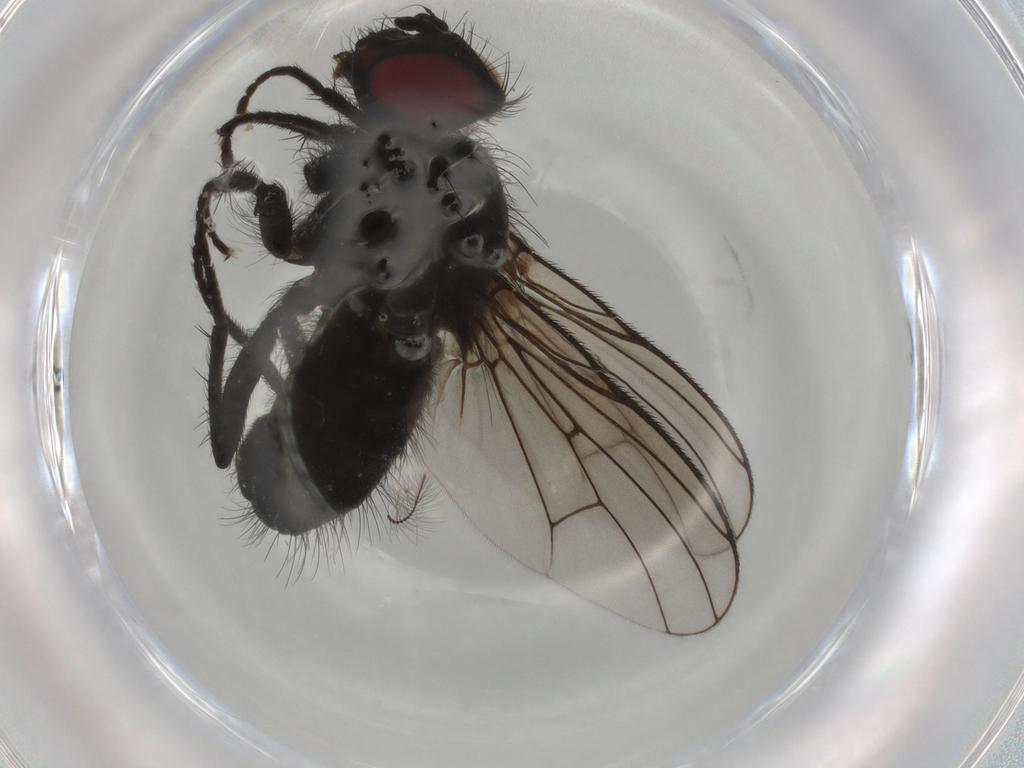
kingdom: Animalia
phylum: Arthropoda
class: Insecta
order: Diptera
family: Muscidae
